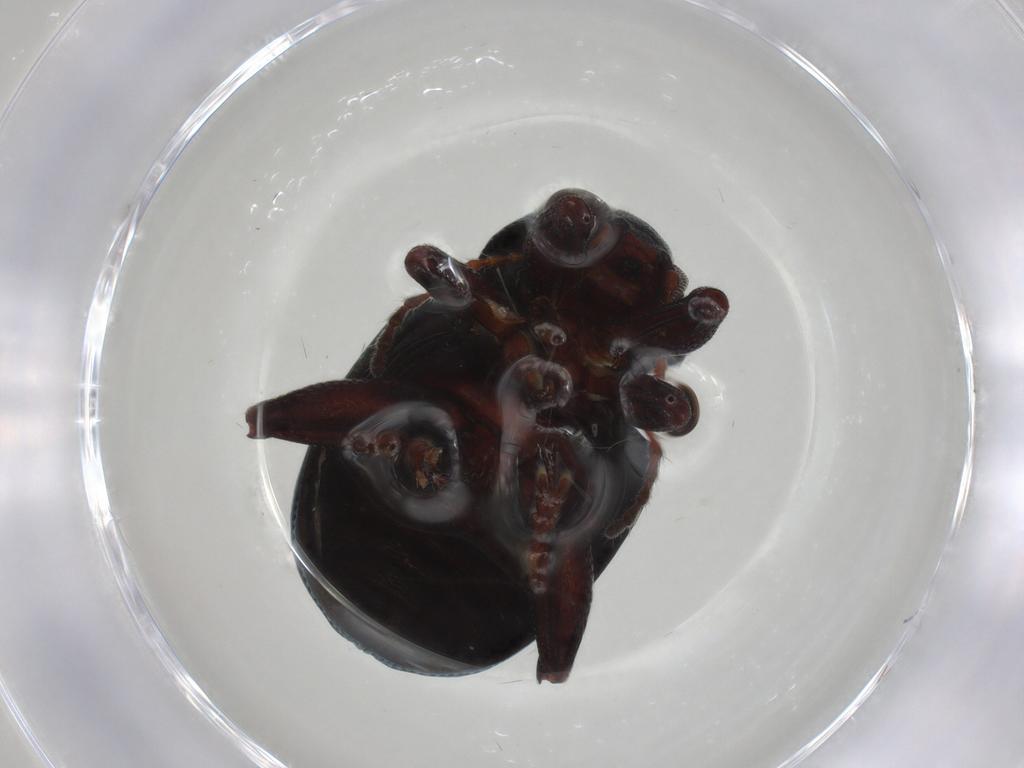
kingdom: Animalia
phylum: Arthropoda
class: Insecta
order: Coleoptera
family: Chrysomelidae
